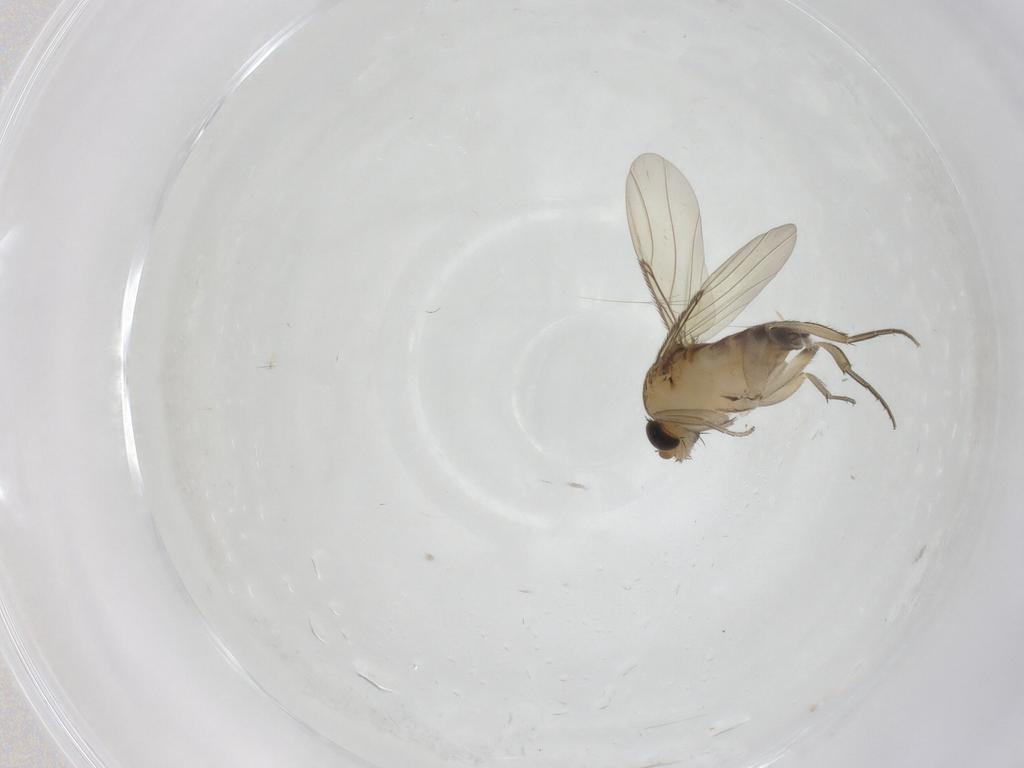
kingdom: Animalia
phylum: Arthropoda
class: Insecta
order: Diptera
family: Phoridae
